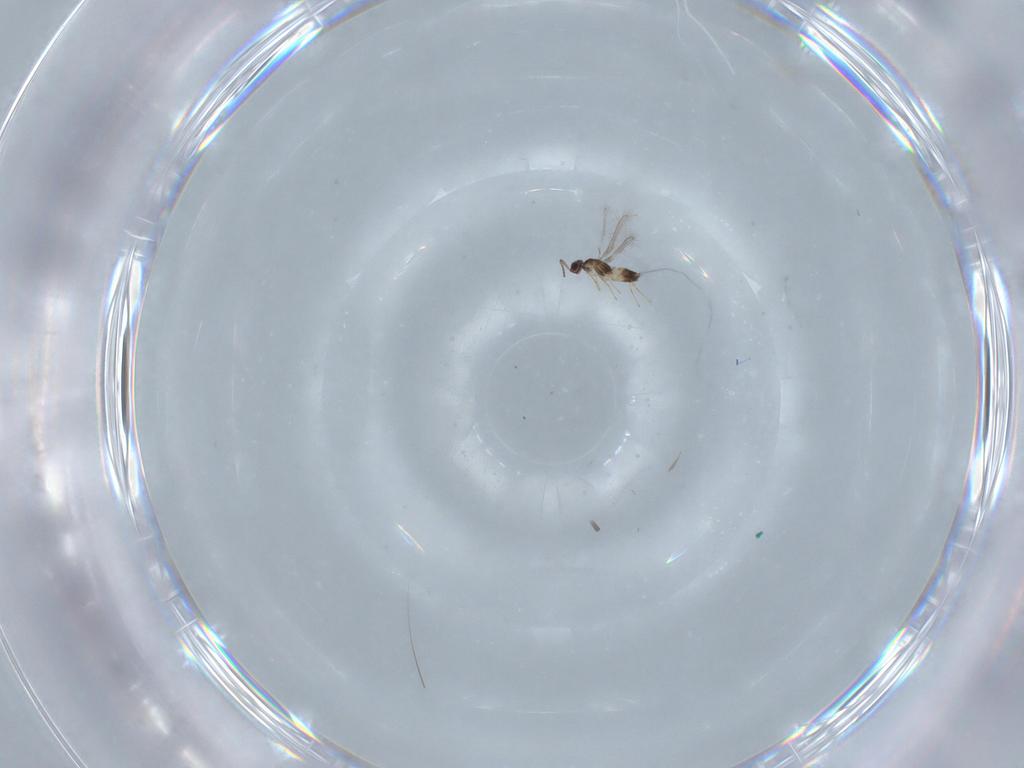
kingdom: Animalia
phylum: Arthropoda
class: Insecta
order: Hymenoptera
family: Mymaridae
